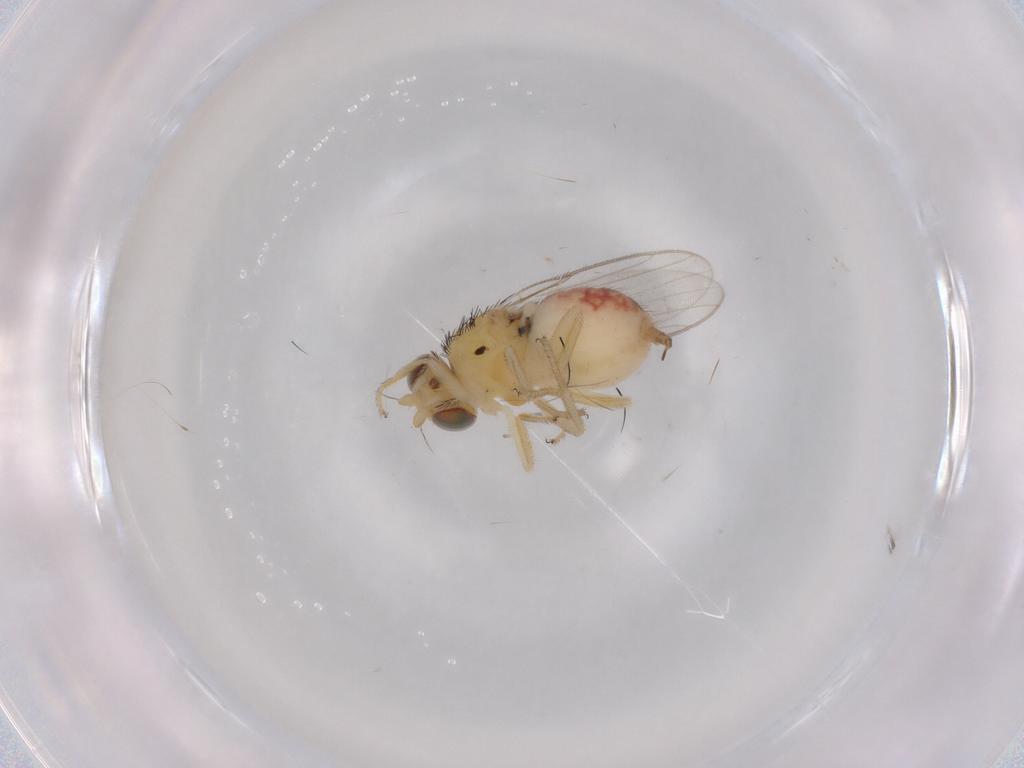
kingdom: Animalia
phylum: Arthropoda
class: Insecta
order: Diptera
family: Chloropidae
